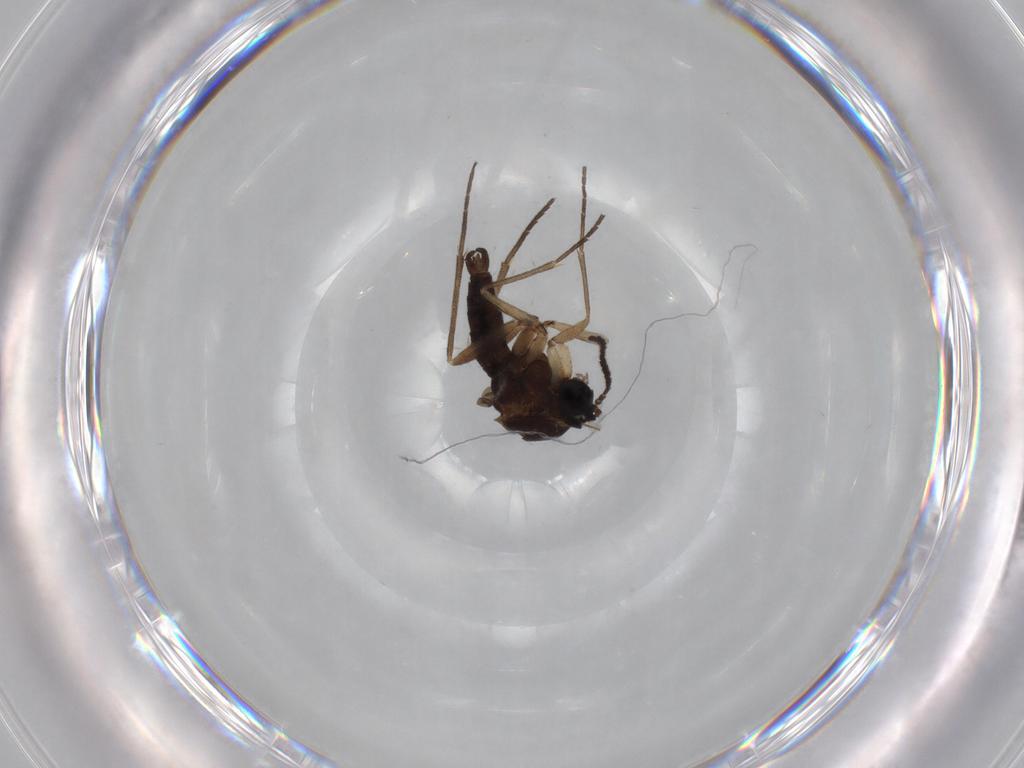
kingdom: Animalia
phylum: Arthropoda
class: Insecta
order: Diptera
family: Sciaridae
